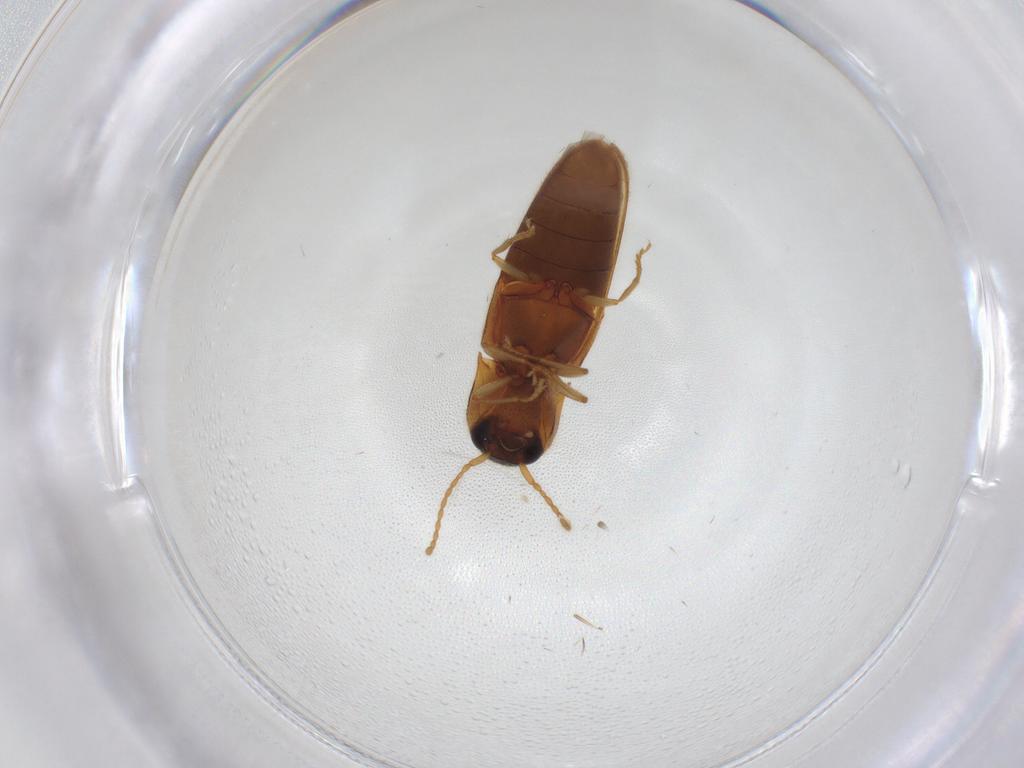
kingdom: Animalia
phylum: Arthropoda
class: Insecta
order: Coleoptera
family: Elateridae
